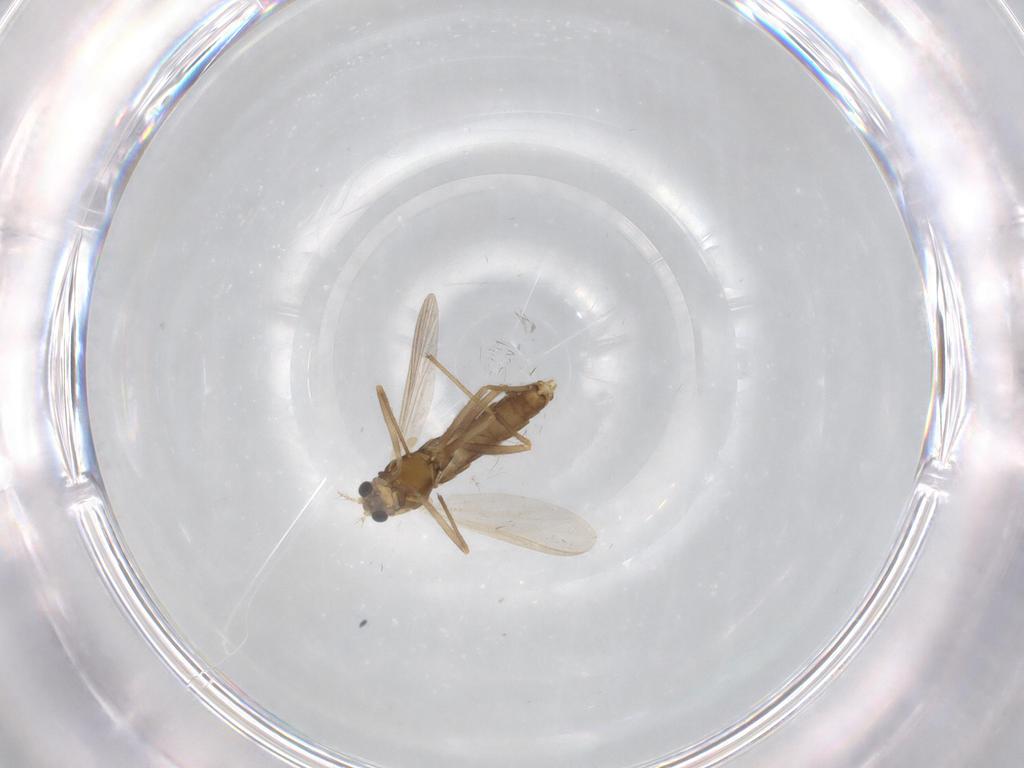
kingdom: Animalia
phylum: Arthropoda
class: Insecta
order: Diptera
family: Chironomidae
